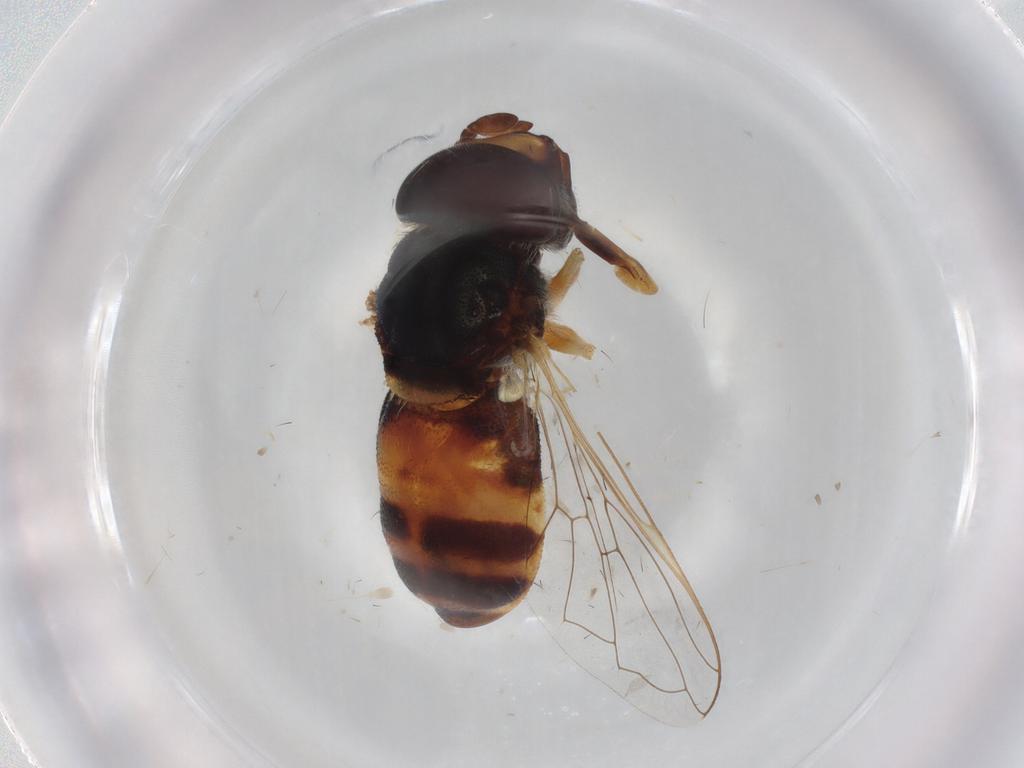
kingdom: Animalia
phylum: Arthropoda
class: Insecta
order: Diptera
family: Agromyzidae
